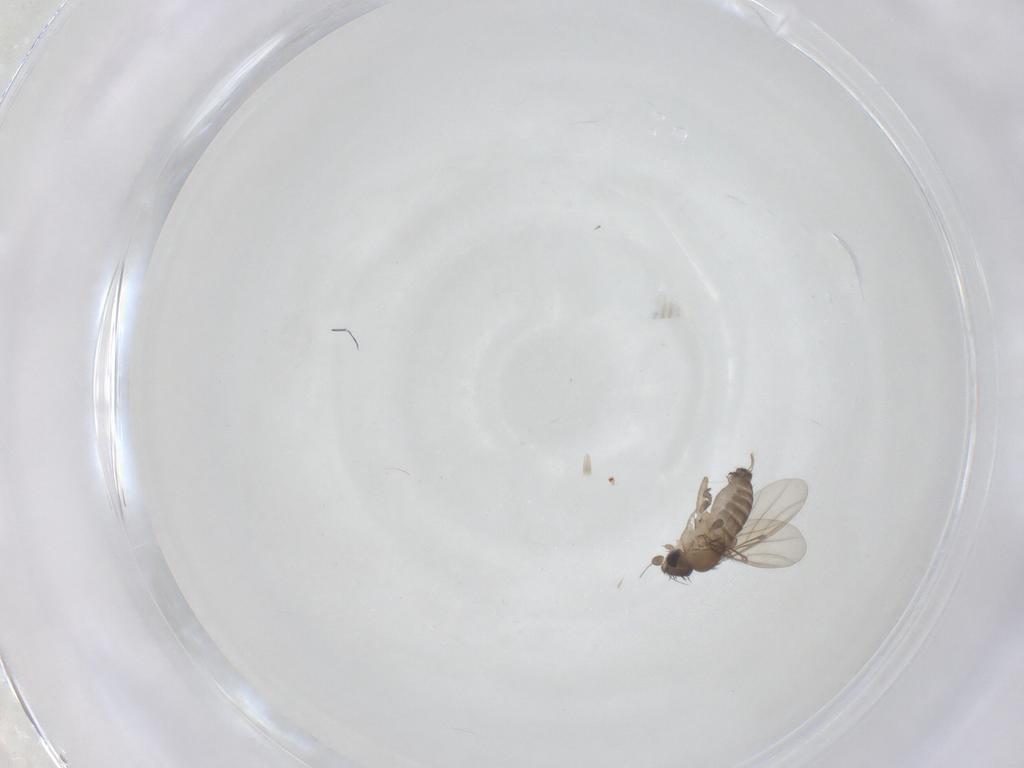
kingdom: Animalia
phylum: Arthropoda
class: Insecta
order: Diptera
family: Phoridae
